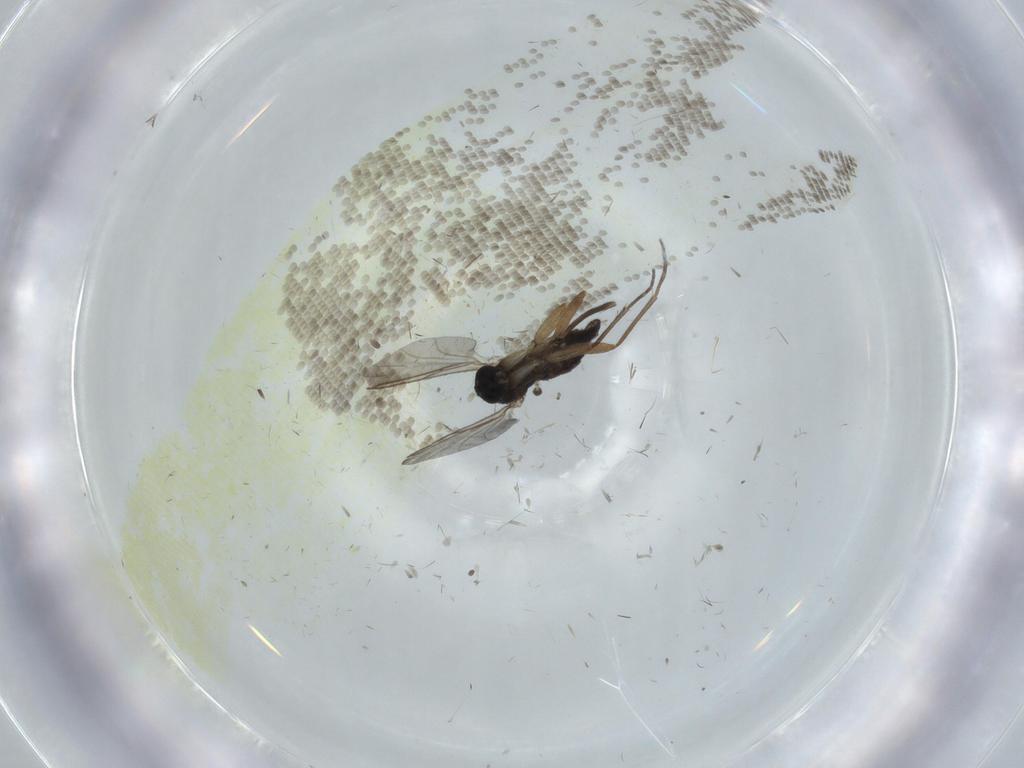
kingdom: Animalia
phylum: Arthropoda
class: Insecta
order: Diptera
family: Sciaridae
